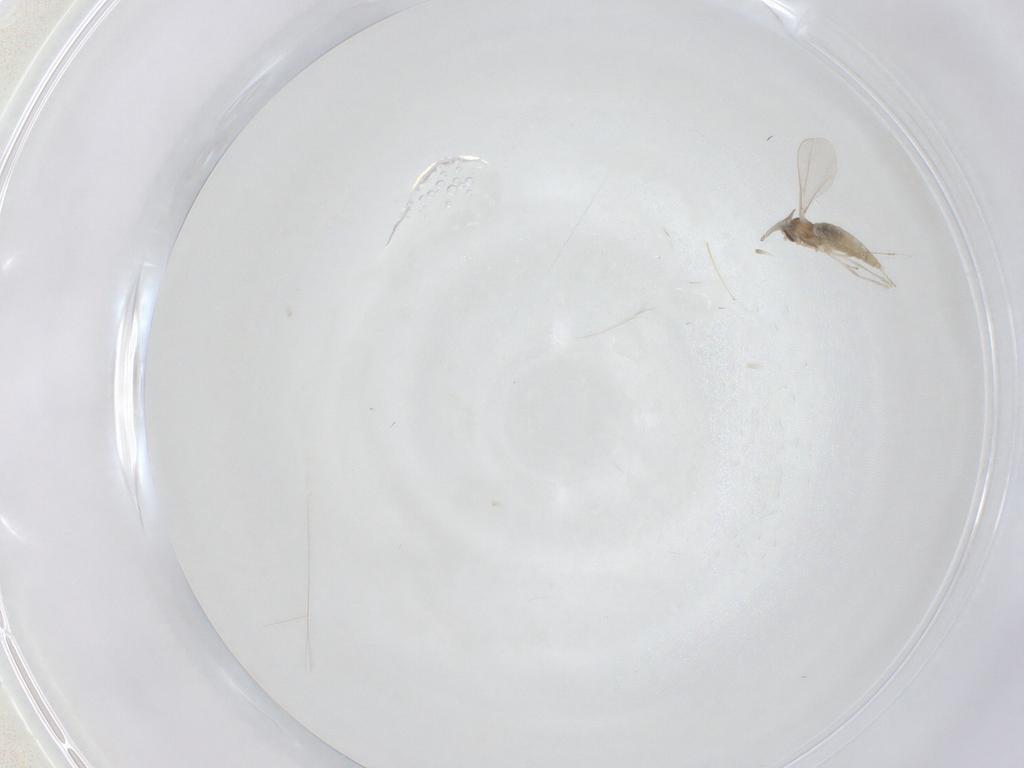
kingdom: Animalia
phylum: Arthropoda
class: Insecta
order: Diptera
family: Cecidomyiidae
